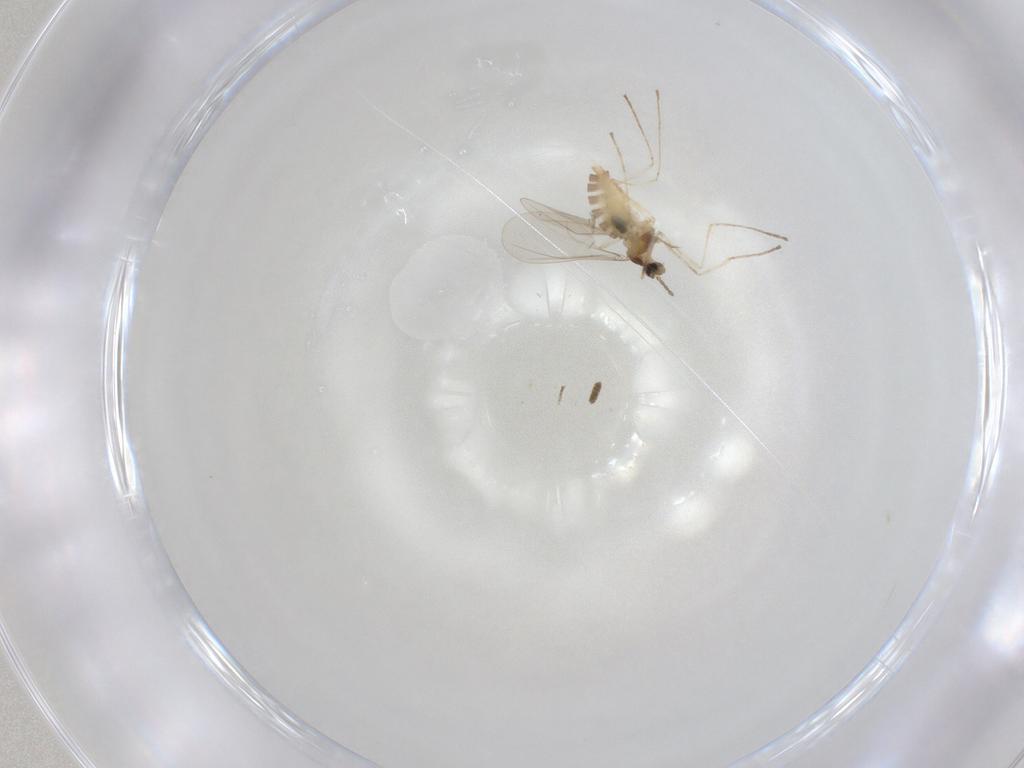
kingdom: Animalia
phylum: Arthropoda
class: Insecta
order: Diptera
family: Cecidomyiidae
